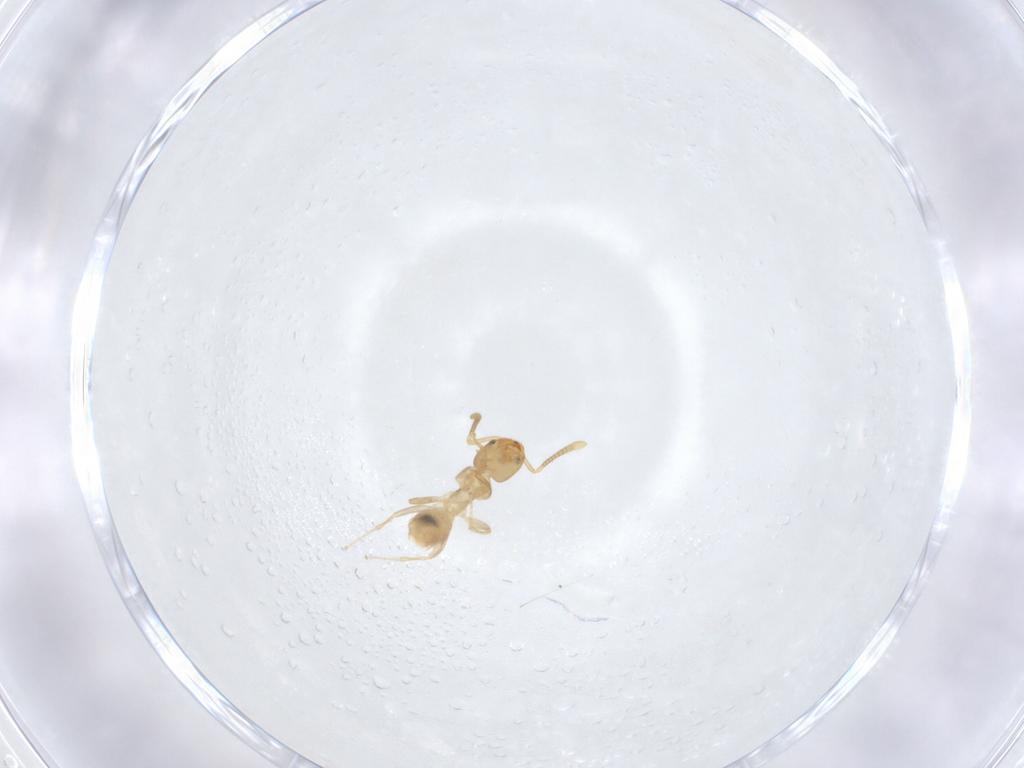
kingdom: Animalia
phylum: Arthropoda
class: Insecta
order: Hymenoptera
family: Formicidae
